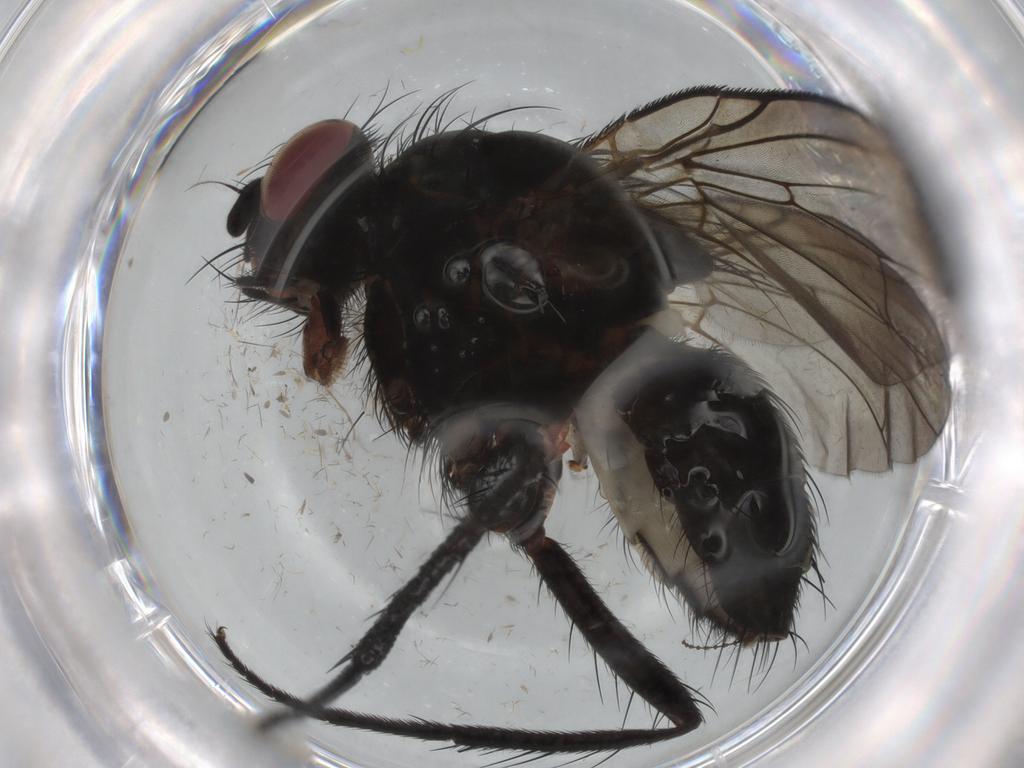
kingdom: Animalia
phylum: Arthropoda
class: Insecta
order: Diptera
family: Anthomyiidae
